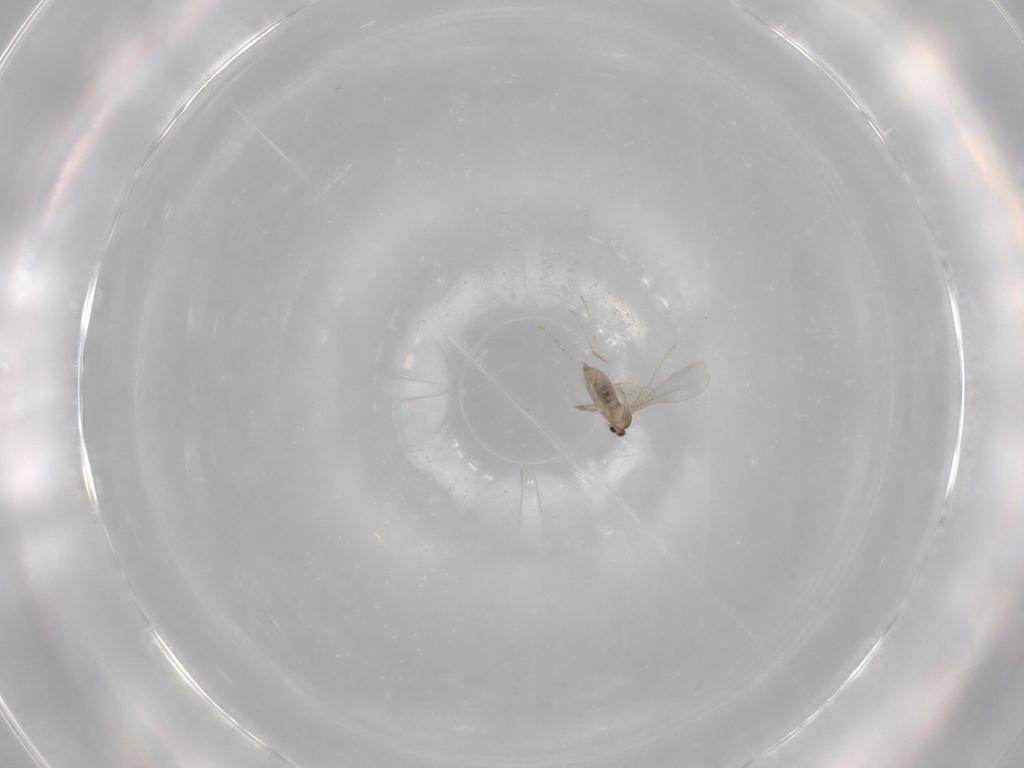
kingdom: Animalia
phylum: Arthropoda
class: Insecta
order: Diptera
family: Cecidomyiidae
